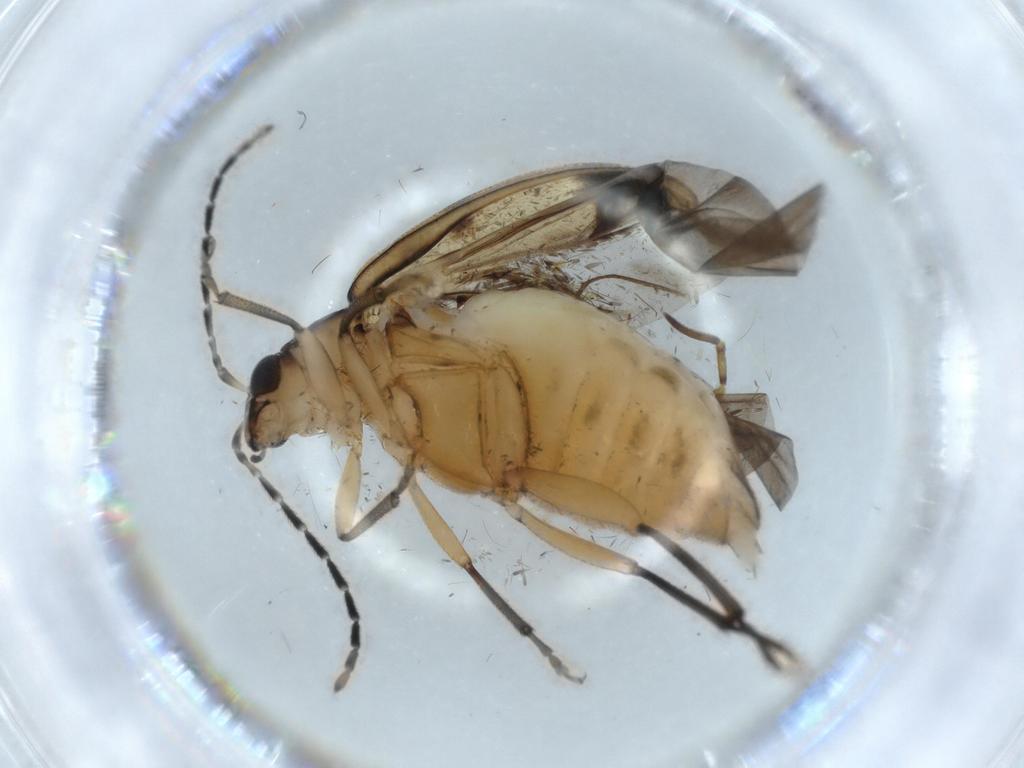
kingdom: Animalia
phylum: Arthropoda
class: Insecta
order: Coleoptera
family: Chrysomelidae
